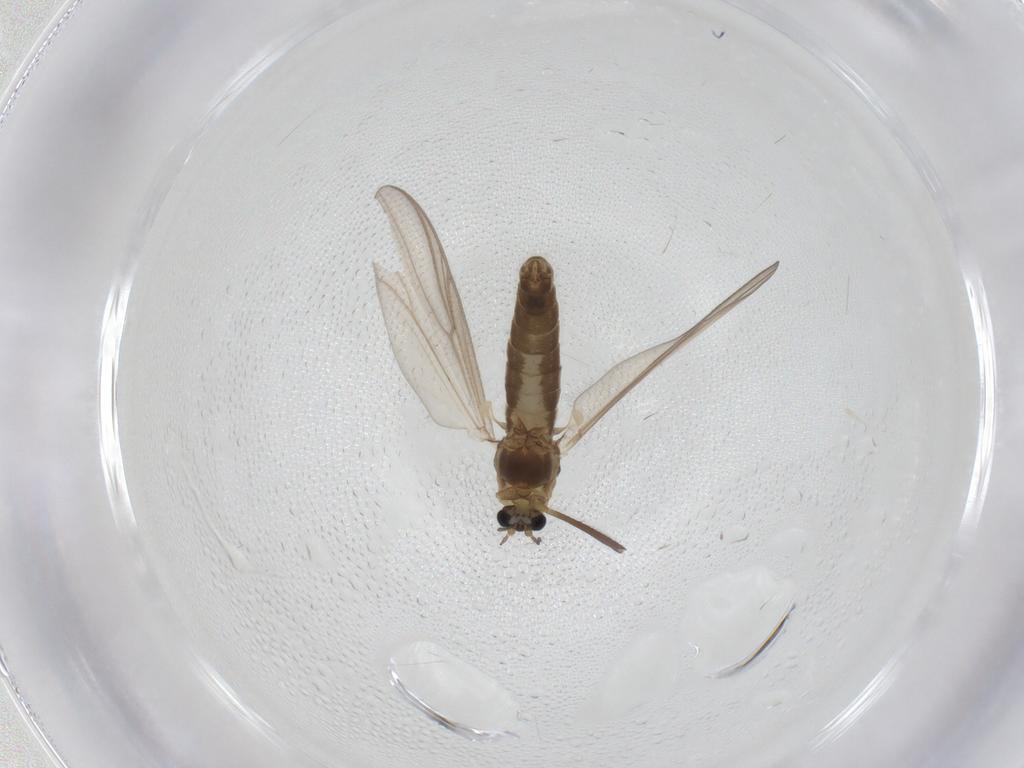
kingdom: Animalia
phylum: Arthropoda
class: Insecta
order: Diptera
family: Chironomidae
